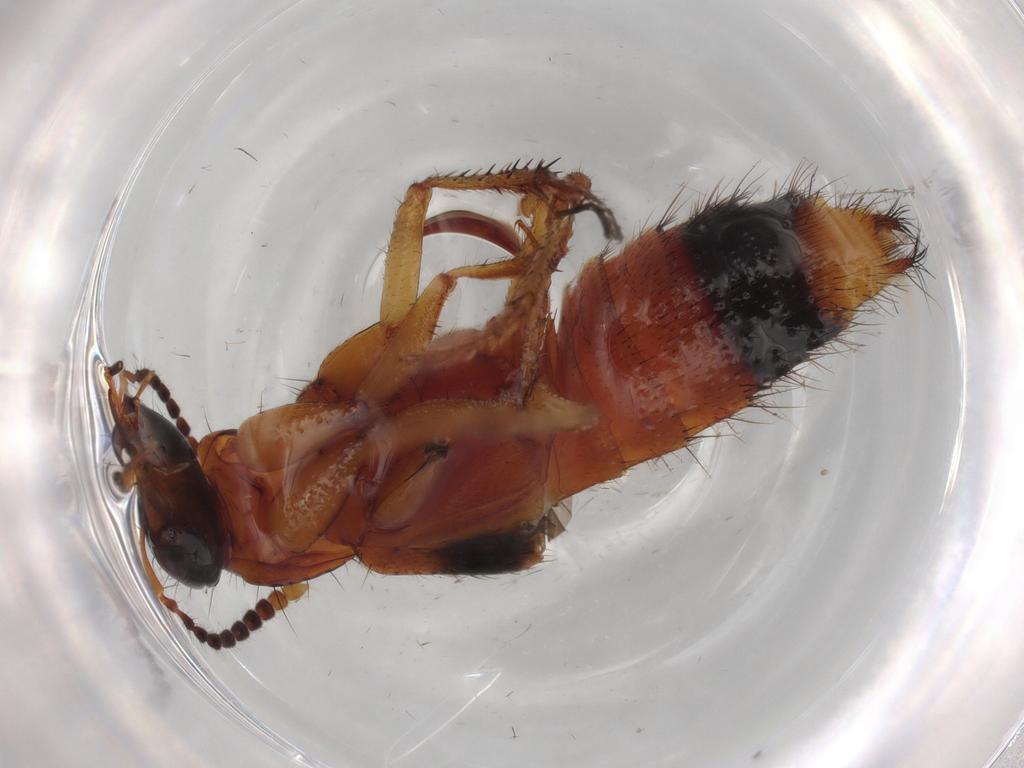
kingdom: Animalia
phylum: Arthropoda
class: Insecta
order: Coleoptera
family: Staphylinidae
